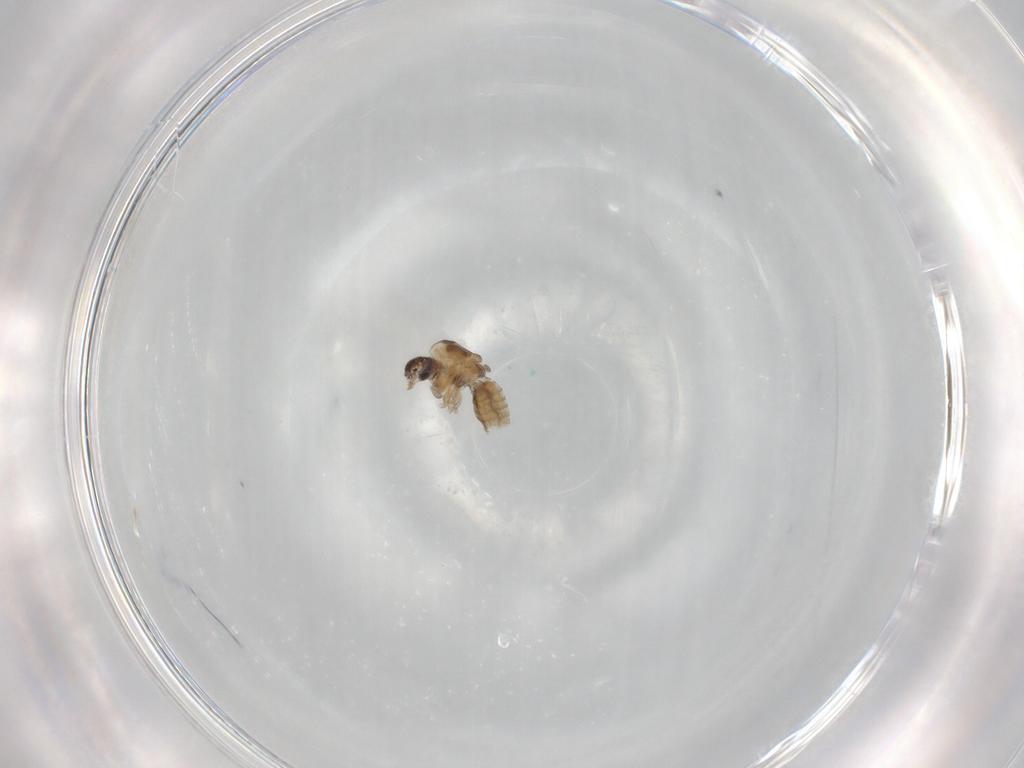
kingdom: Animalia
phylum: Arthropoda
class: Insecta
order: Diptera
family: Chironomidae
